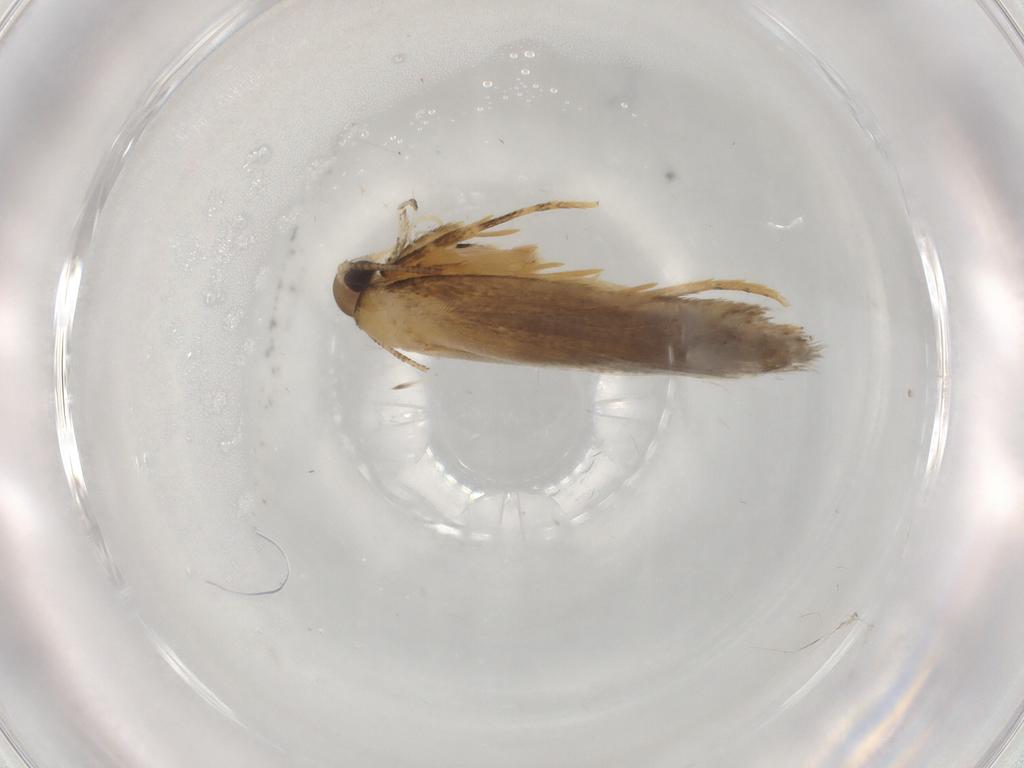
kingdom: Animalia
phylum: Arthropoda
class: Insecta
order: Lepidoptera
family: Autostichidae
